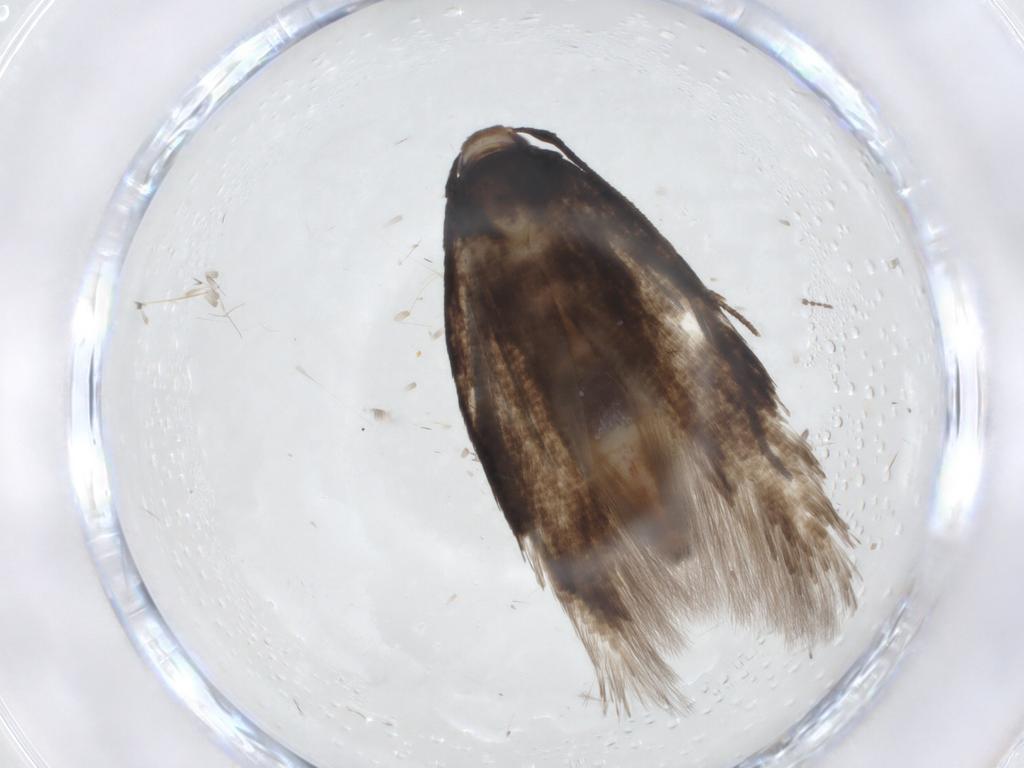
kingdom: Animalia
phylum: Arthropoda
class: Insecta
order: Lepidoptera
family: Cosmopterigidae
